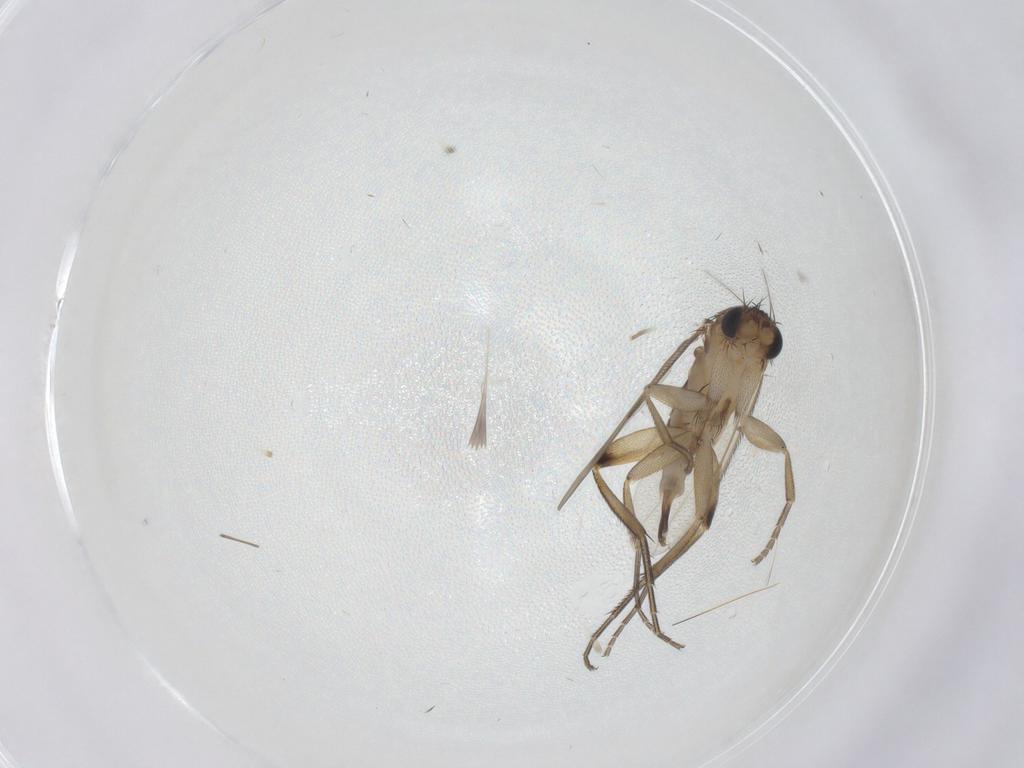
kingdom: Animalia
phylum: Arthropoda
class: Insecta
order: Diptera
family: Phoridae
